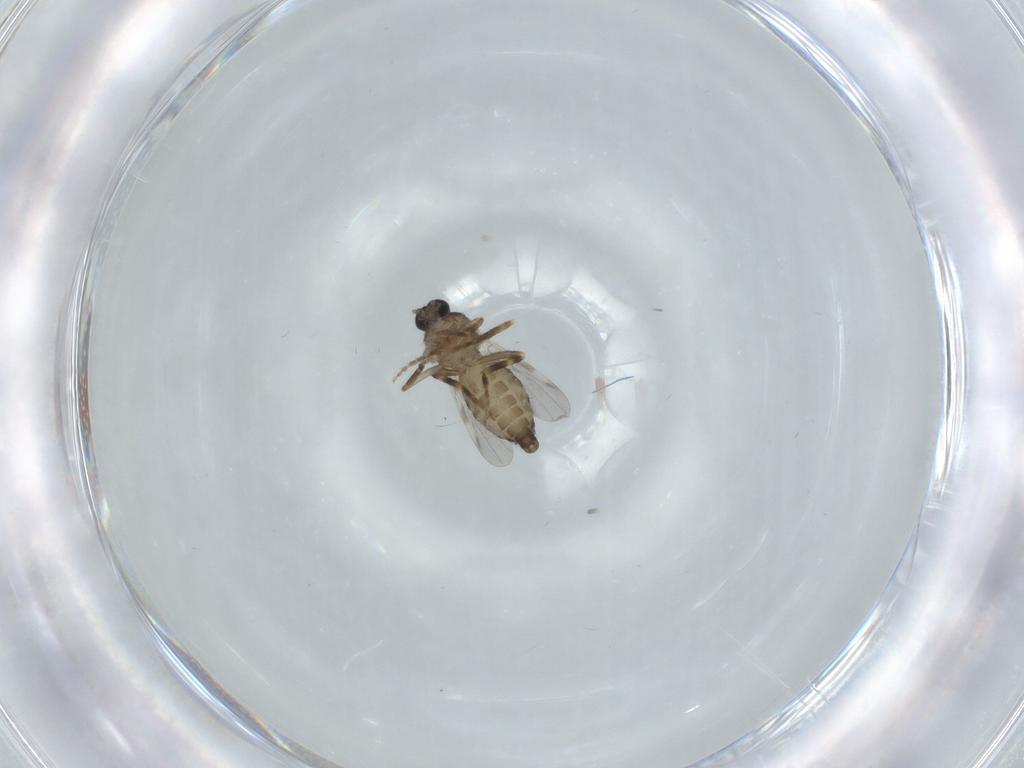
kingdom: Animalia
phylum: Arthropoda
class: Insecta
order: Diptera
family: Ceratopogonidae
